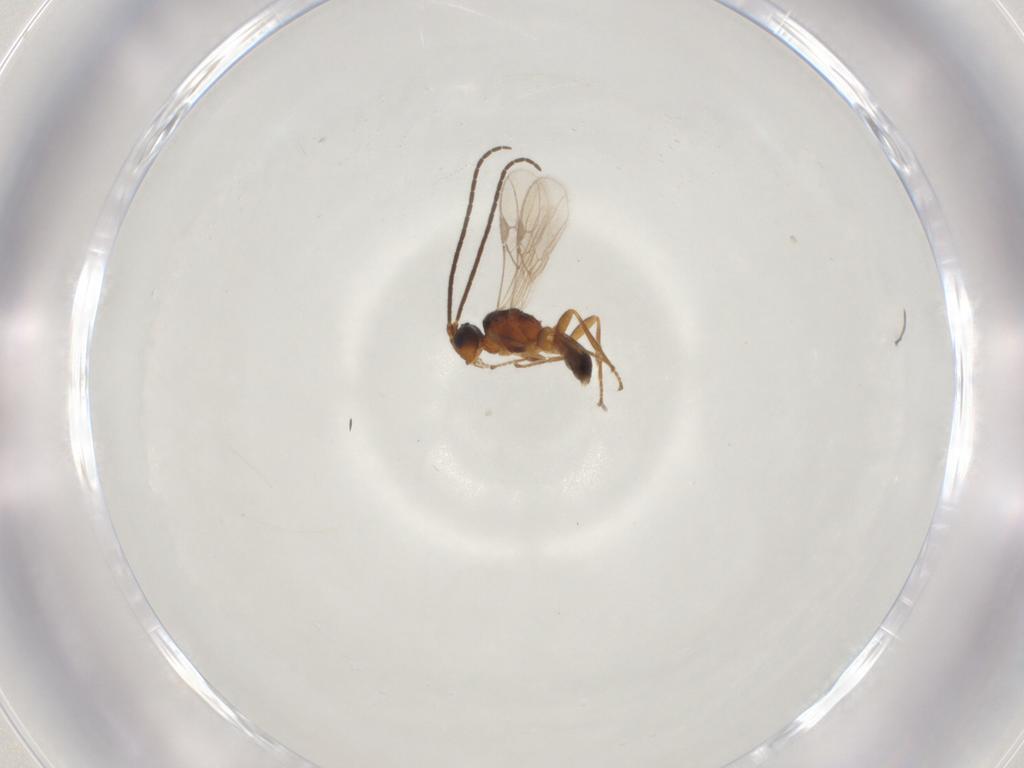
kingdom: Animalia
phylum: Arthropoda
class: Insecta
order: Hymenoptera
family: Braconidae
